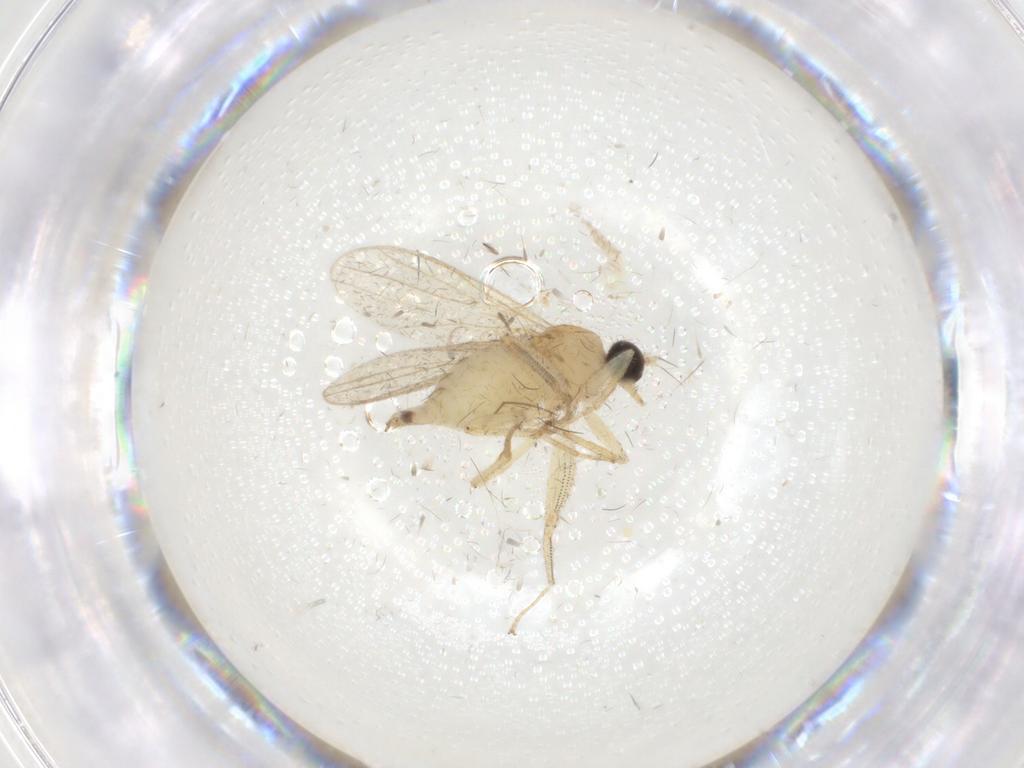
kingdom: Animalia
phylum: Arthropoda
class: Insecta
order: Diptera
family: Hybotidae
